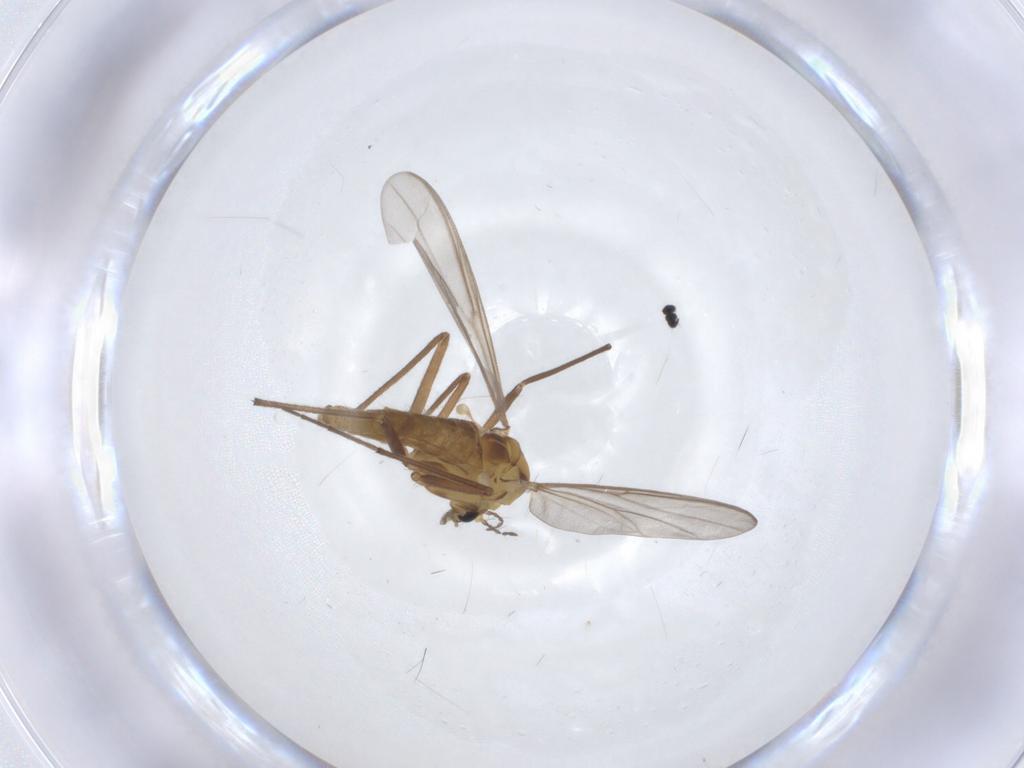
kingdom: Animalia
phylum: Arthropoda
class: Insecta
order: Diptera
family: Chironomidae
